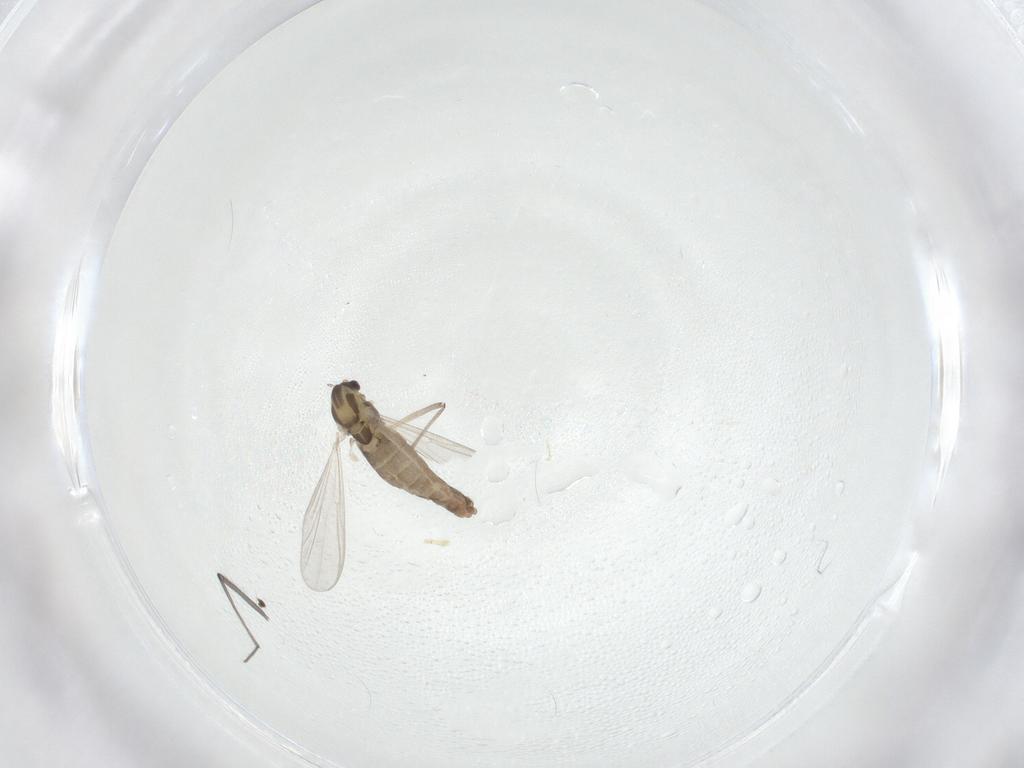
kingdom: Animalia
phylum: Arthropoda
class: Insecta
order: Diptera
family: Chironomidae
